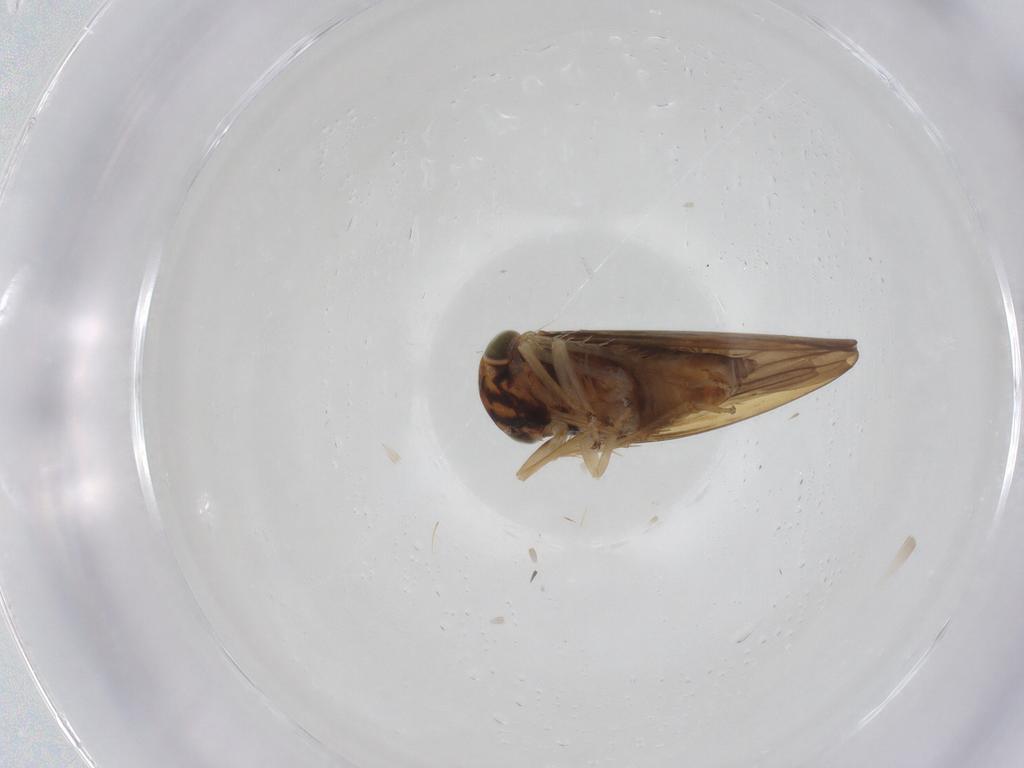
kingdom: Animalia
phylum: Arthropoda
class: Insecta
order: Hemiptera
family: Cicadellidae
